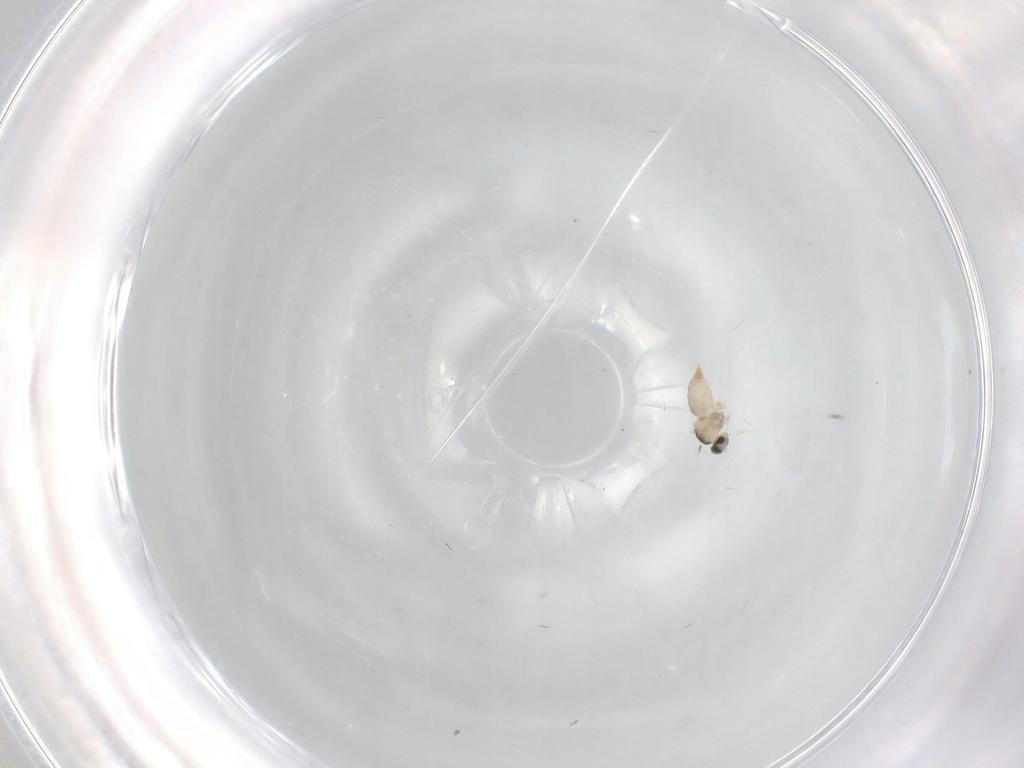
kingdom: Animalia
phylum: Arthropoda
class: Insecta
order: Diptera
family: Cecidomyiidae
